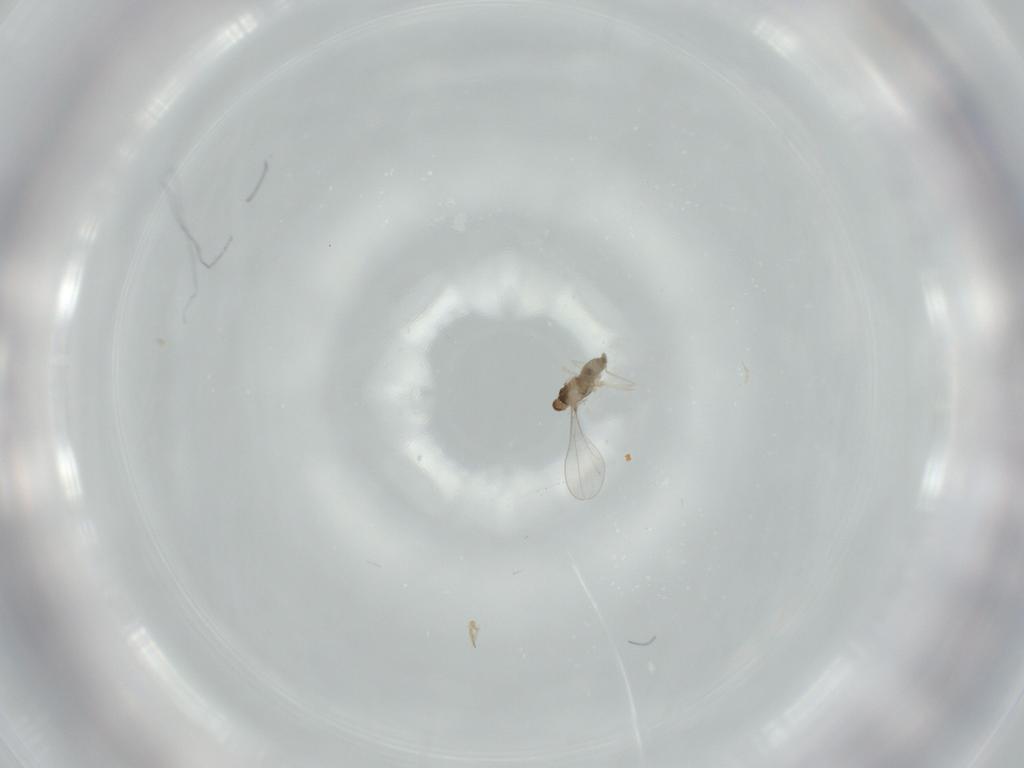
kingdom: Animalia
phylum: Arthropoda
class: Insecta
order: Diptera
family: Cecidomyiidae
